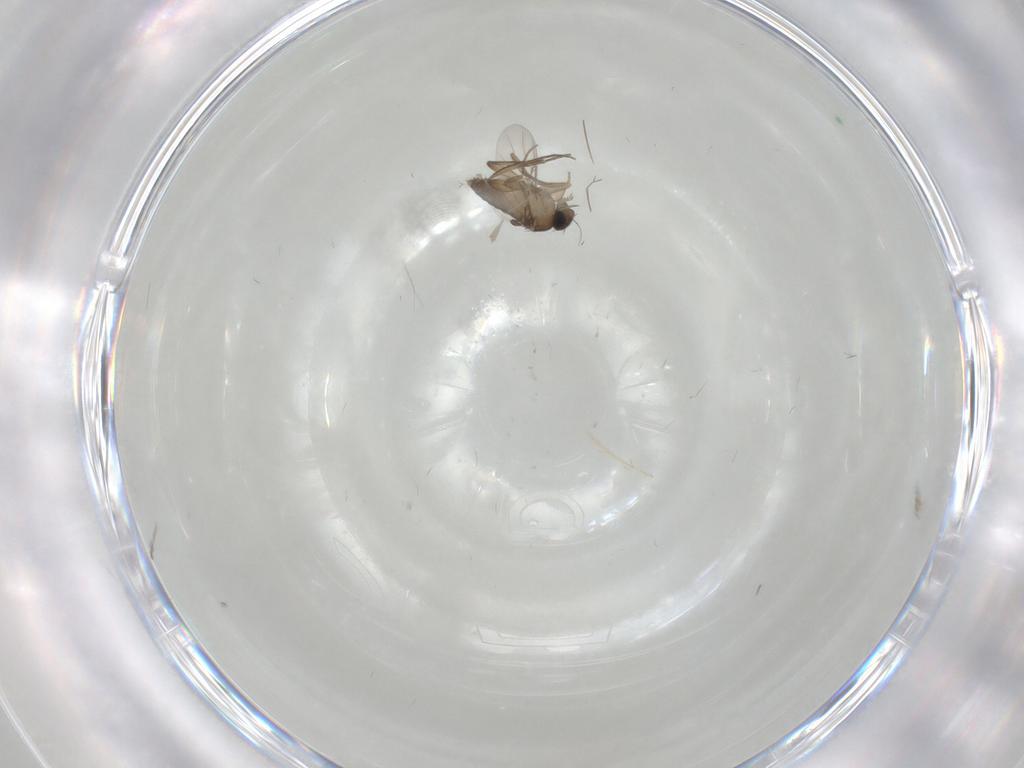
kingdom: Animalia
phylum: Arthropoda
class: Insecta
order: Diptera
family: Phoridae
